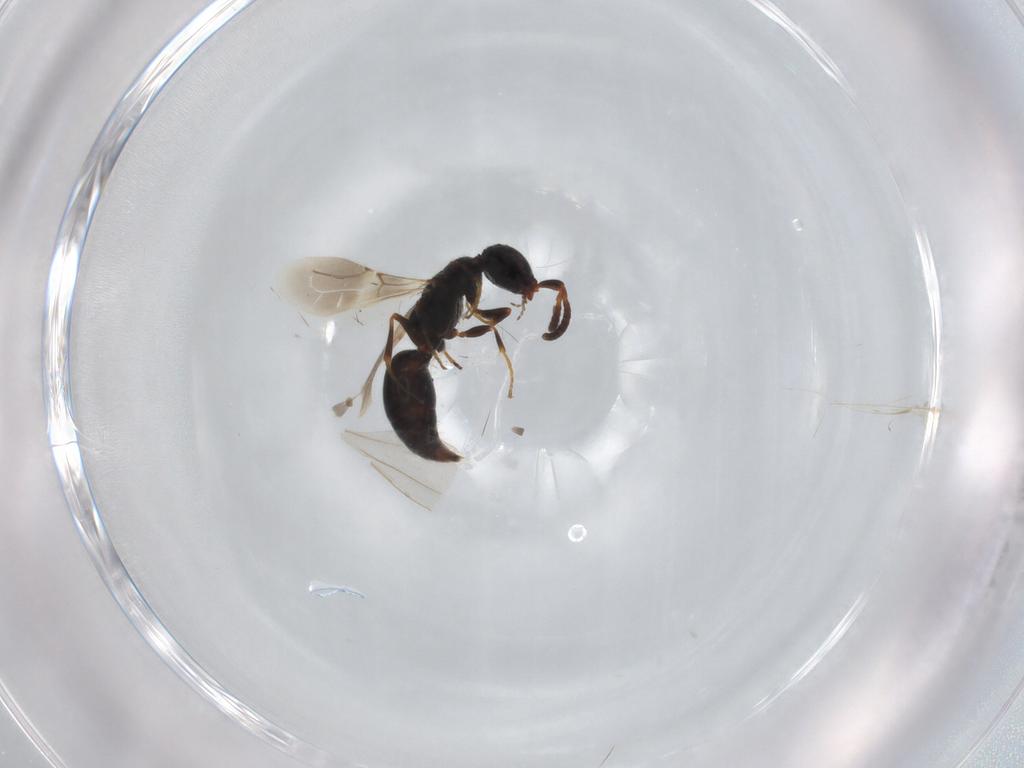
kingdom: Animalia
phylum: Arthropoda
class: Insecta
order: Hymenoptera
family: Bethylidae
